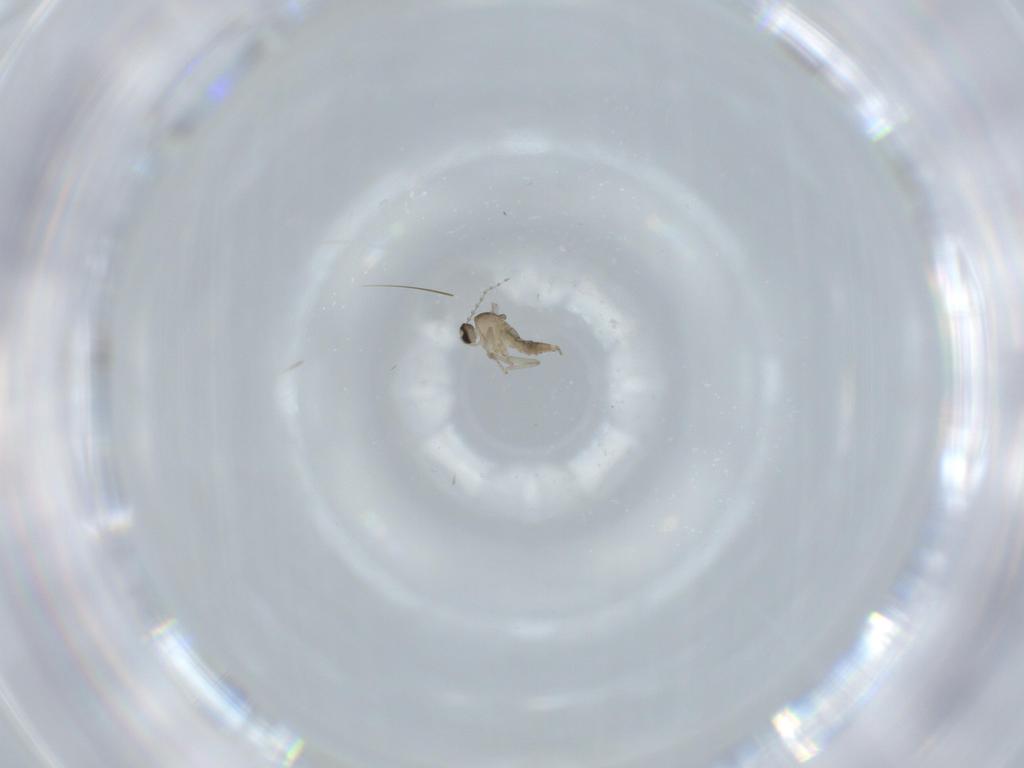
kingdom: Animalia
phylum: Arthropoda
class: Insecta
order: Diptera
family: Cecidomyiidae
